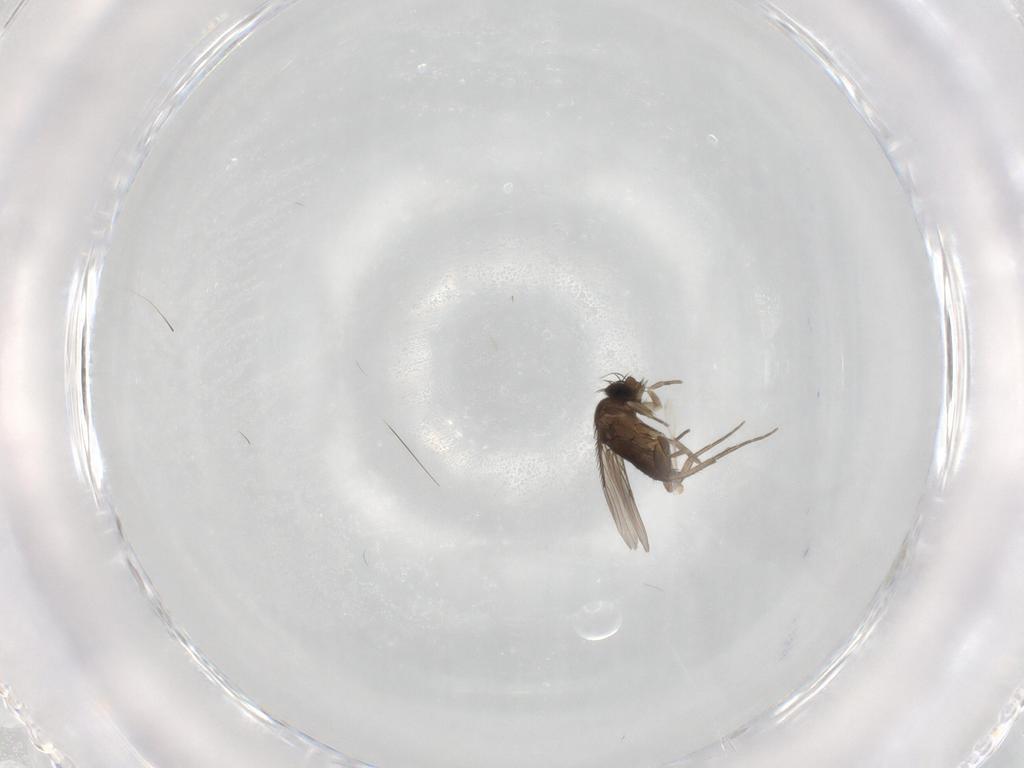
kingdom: Animalia
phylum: Arthropoda
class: Insecta
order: Diptera
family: Phoridae
